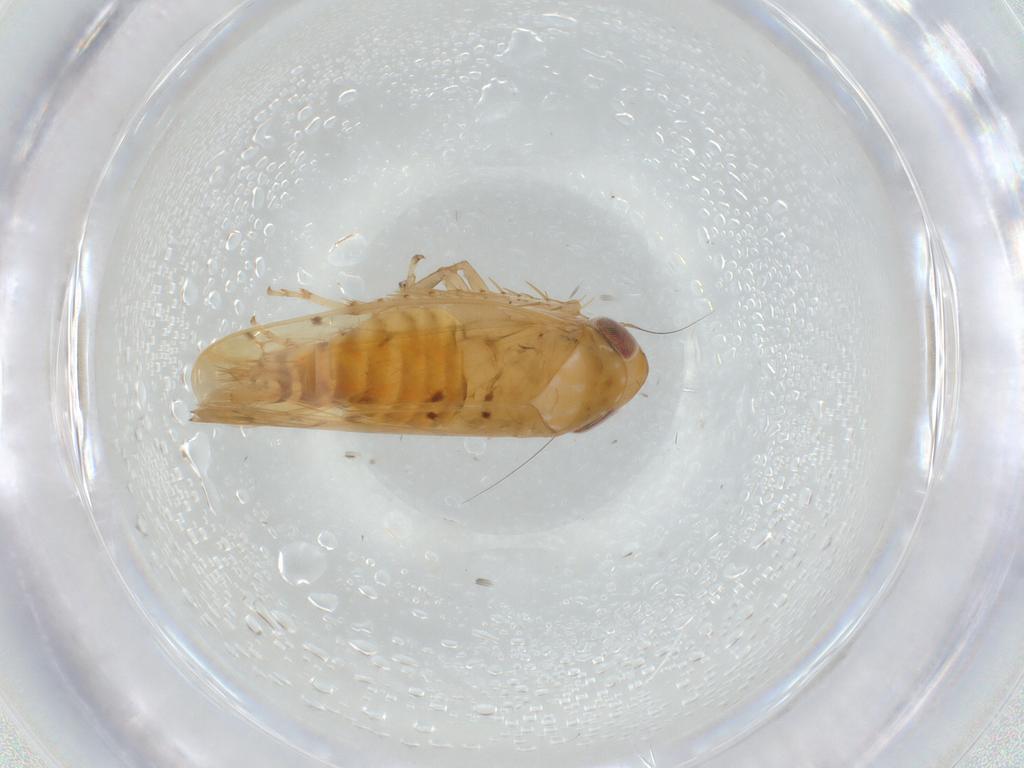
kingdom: Animalia
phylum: Arthropoda
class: Insecta
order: Hemiptera
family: Cicadellidae
